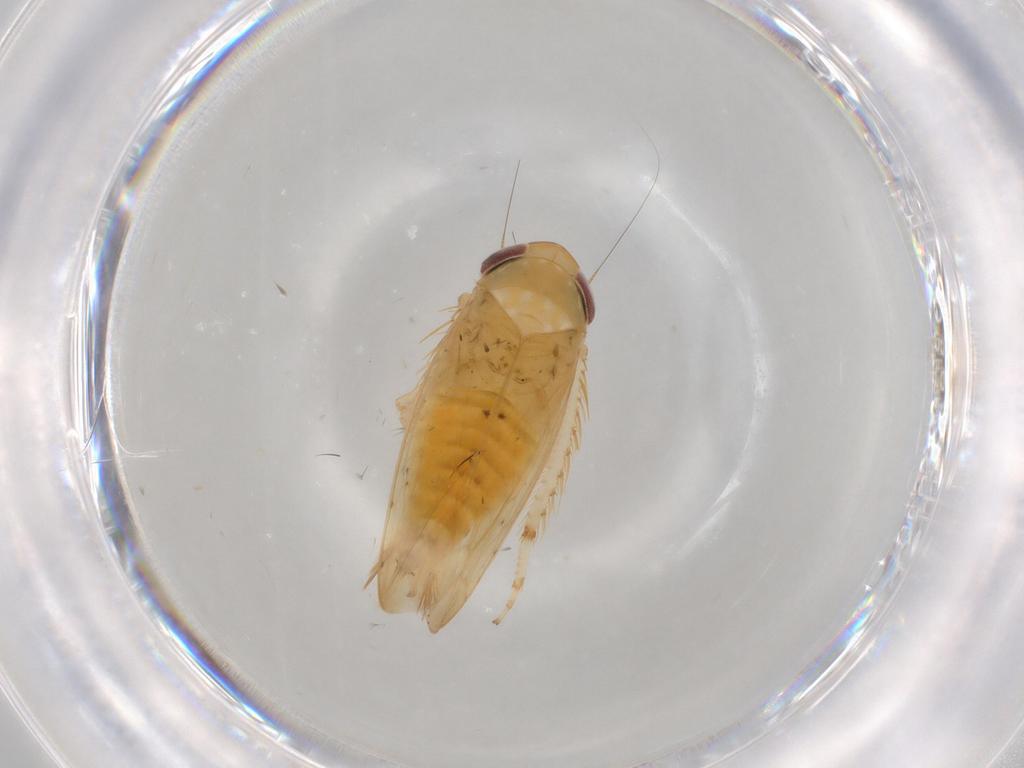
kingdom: Animalia
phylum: Arthropoda
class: Insecta
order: Hemiptera
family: Cicadellidae
